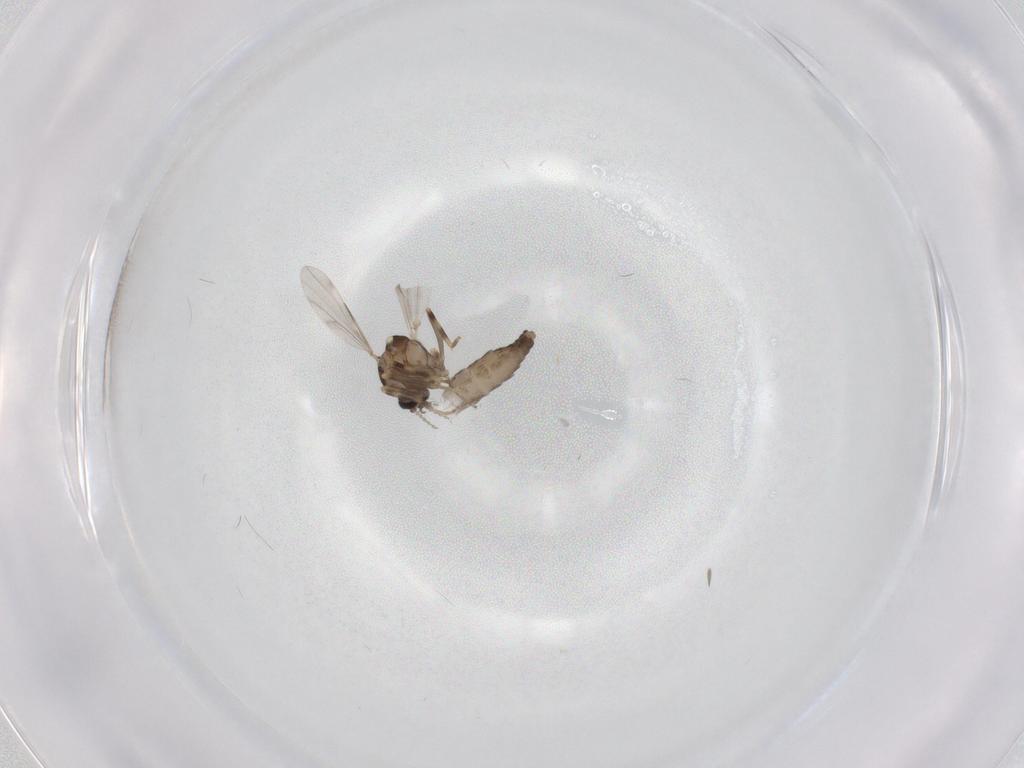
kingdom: Animalia
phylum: Arthropoda
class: Insecta
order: Diptera
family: Ceratopogonidae
